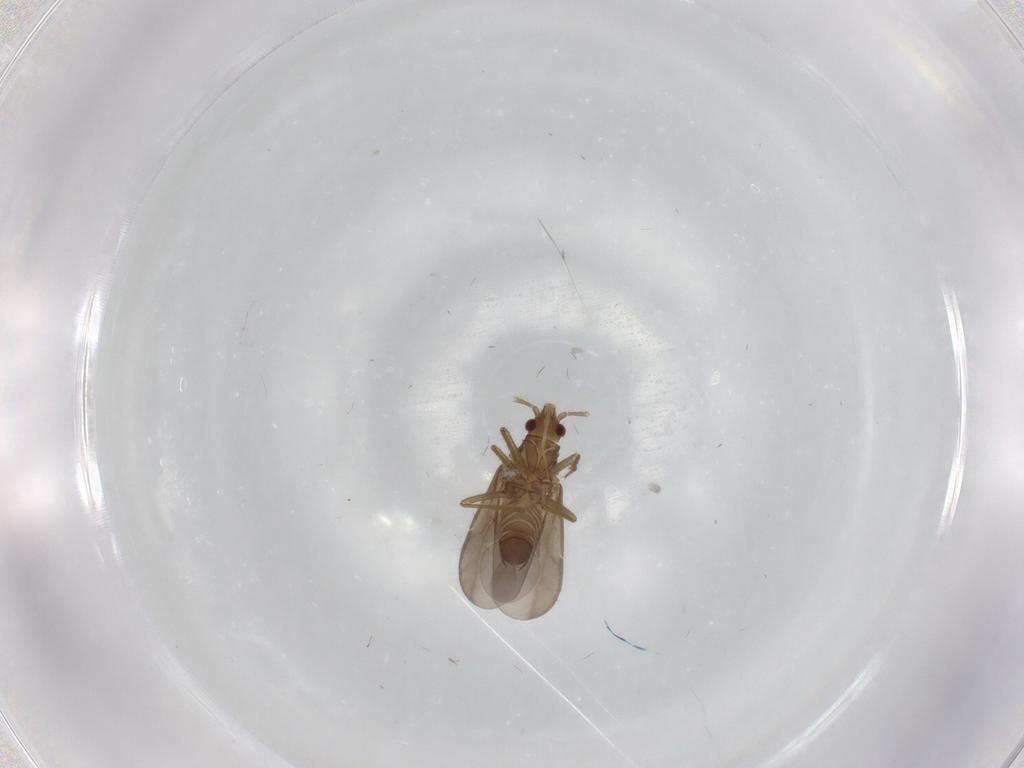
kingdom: Animalia
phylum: Arthropoda
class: Insecta
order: Hemiptera
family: Ceratocombidae
